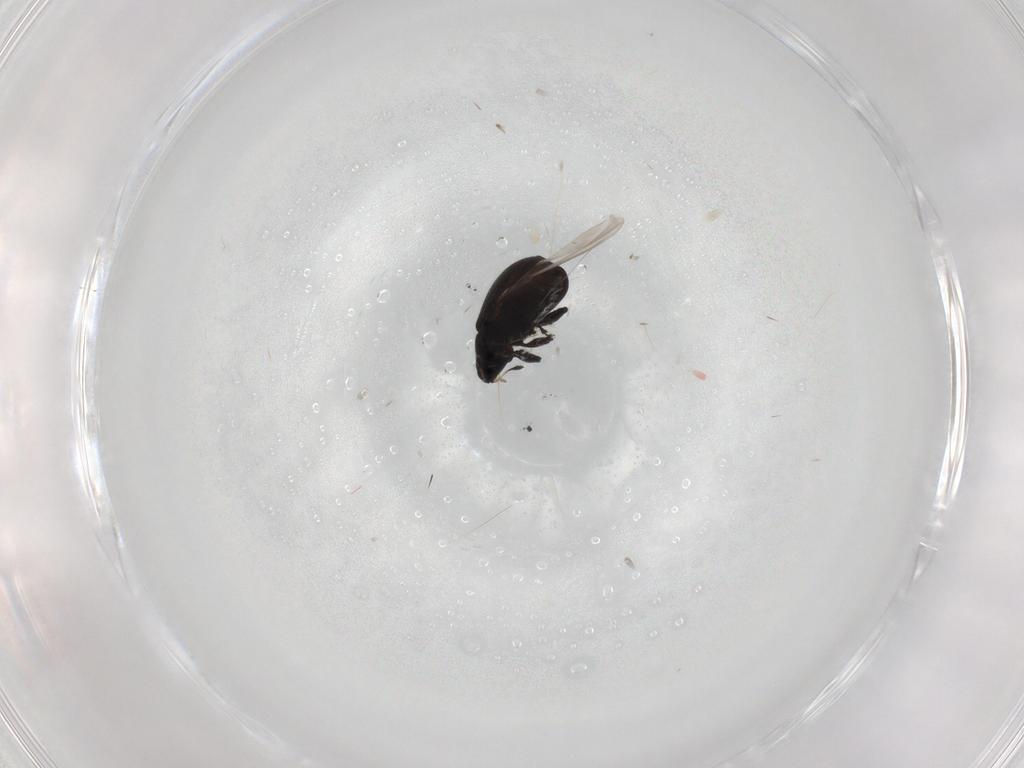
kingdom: Animalia
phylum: Arthropoda
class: Insecta
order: Coleoptera
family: Curculionidae
